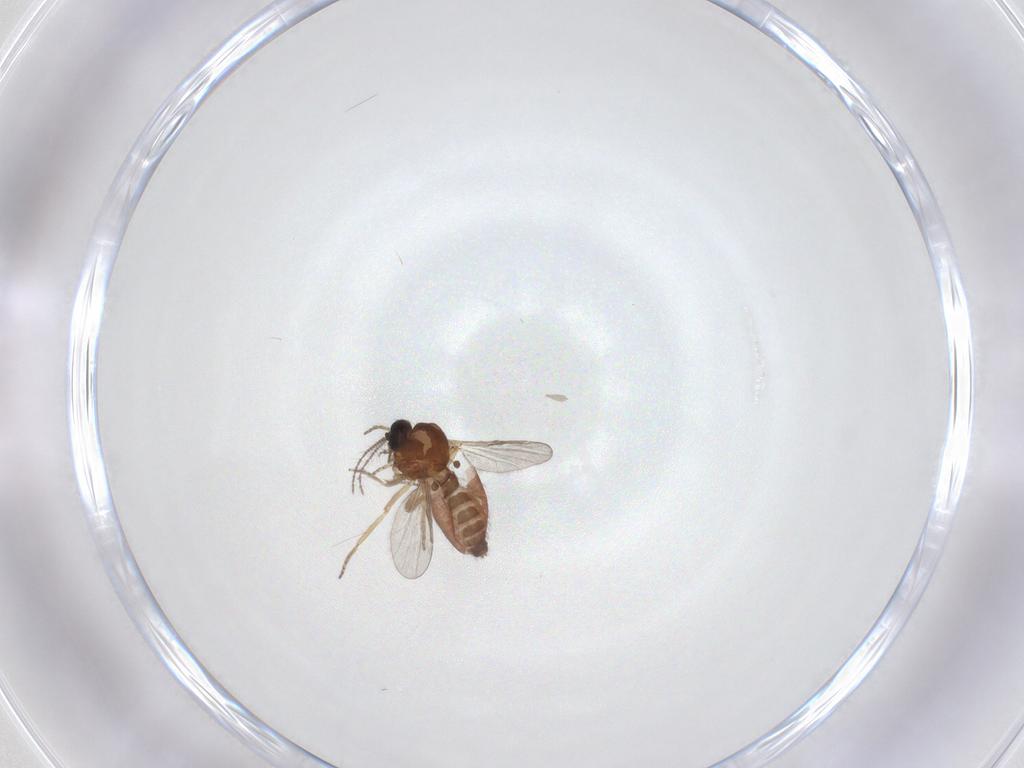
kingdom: Animalia
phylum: Arthropoda
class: Insecta
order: Diptera
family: Ceratopogonidae
